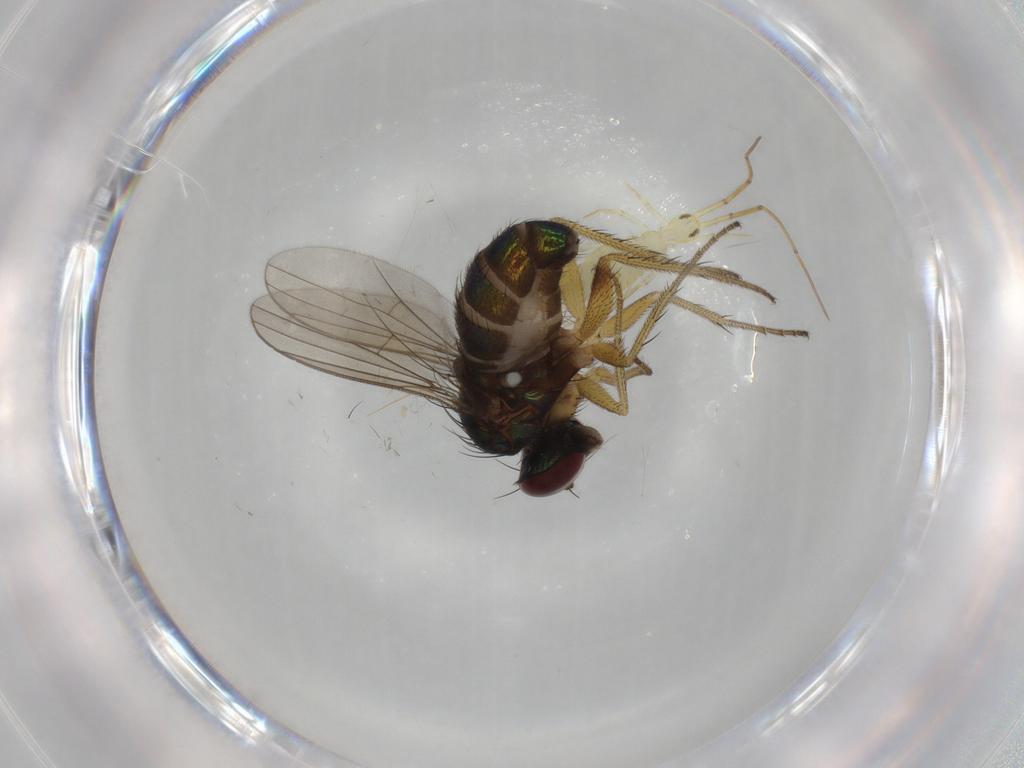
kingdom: Animalia
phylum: Arthropoda
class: Insecta
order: Diptera
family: Dolichopodidae
